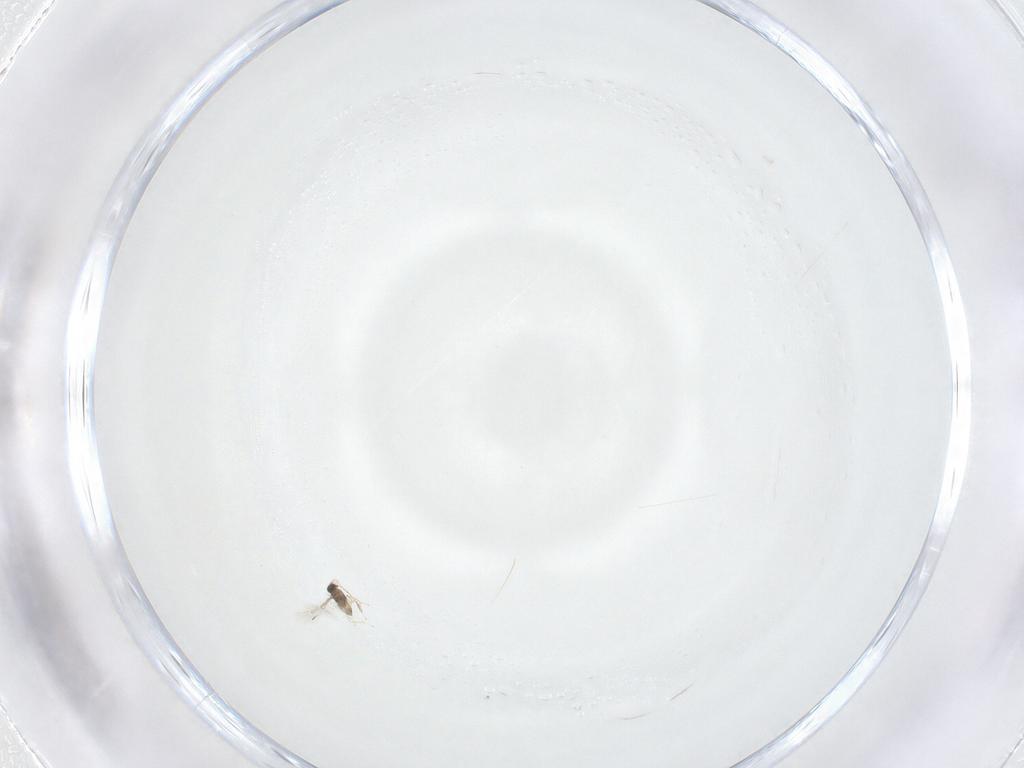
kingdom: Animalia
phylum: Arthropoda
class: Insecta
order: Hymenoptera
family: Mymaridae
